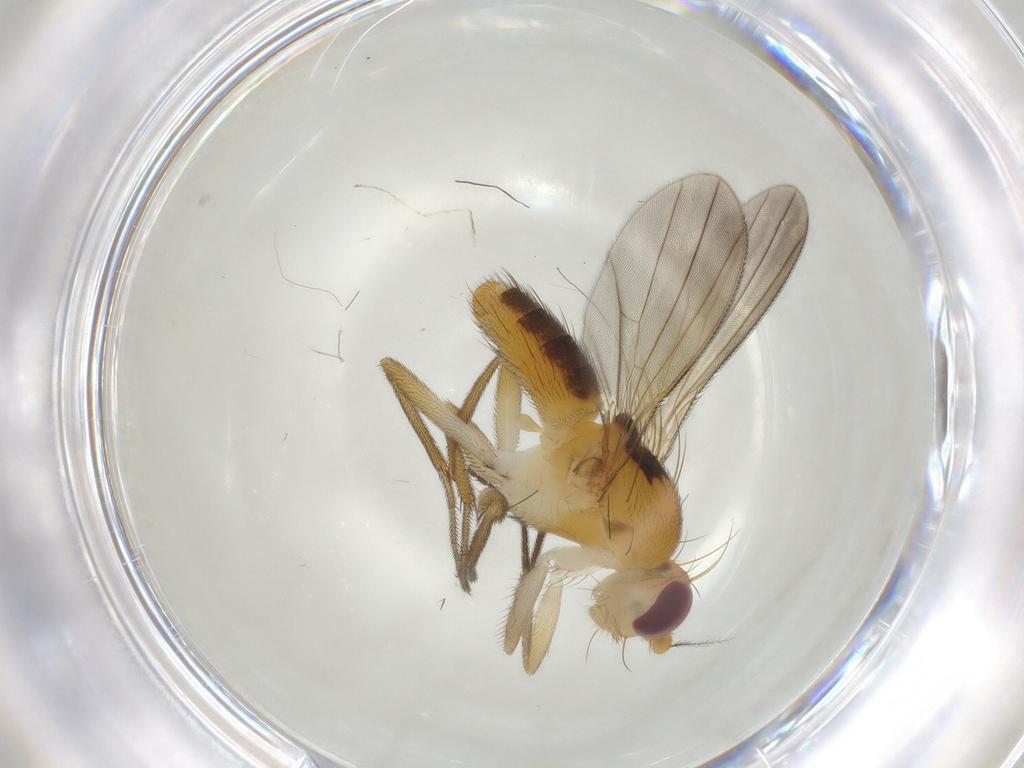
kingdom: Animalia
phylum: Arthropoda
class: Insecta
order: Diptera
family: Clusiidae
